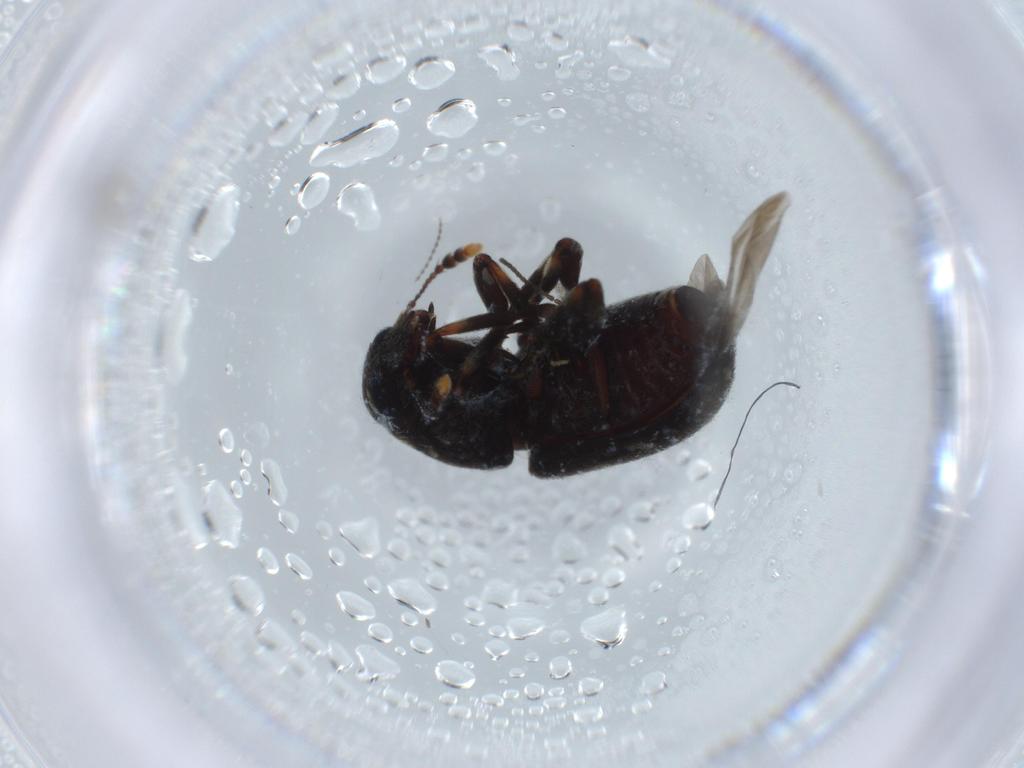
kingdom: Animalia
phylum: Arthropoda
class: Insecta
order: Coleoptera
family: Anthribidae
